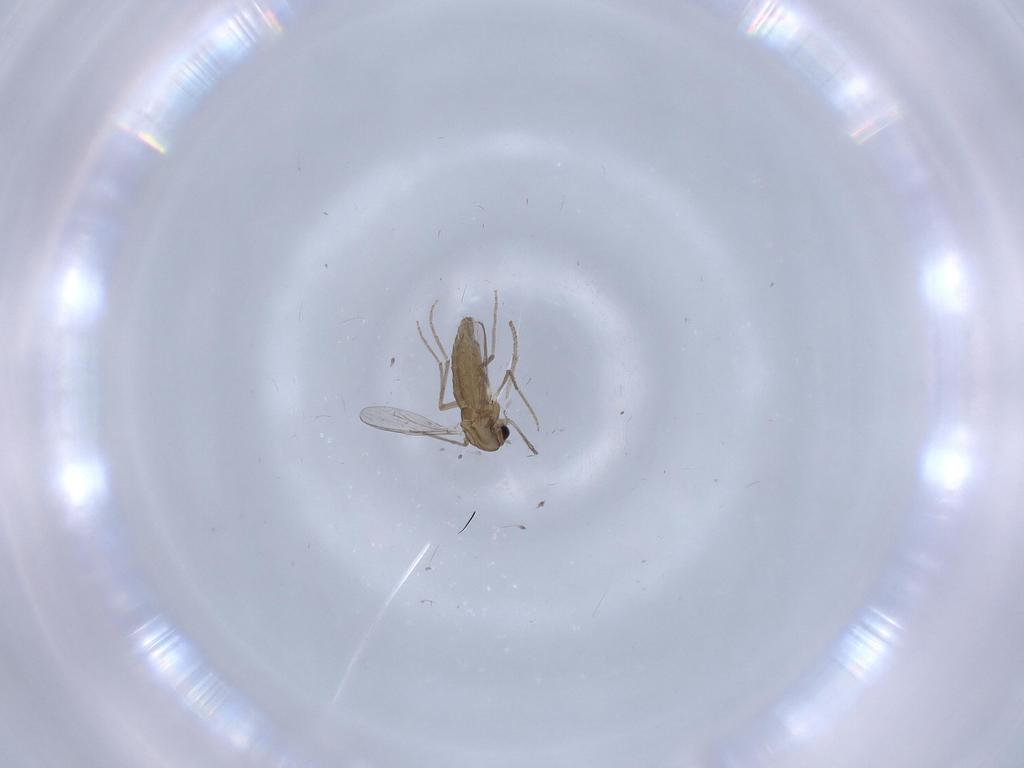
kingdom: Animalia
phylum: Arthropoda
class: Insecta
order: Diptera
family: Chironomidae
